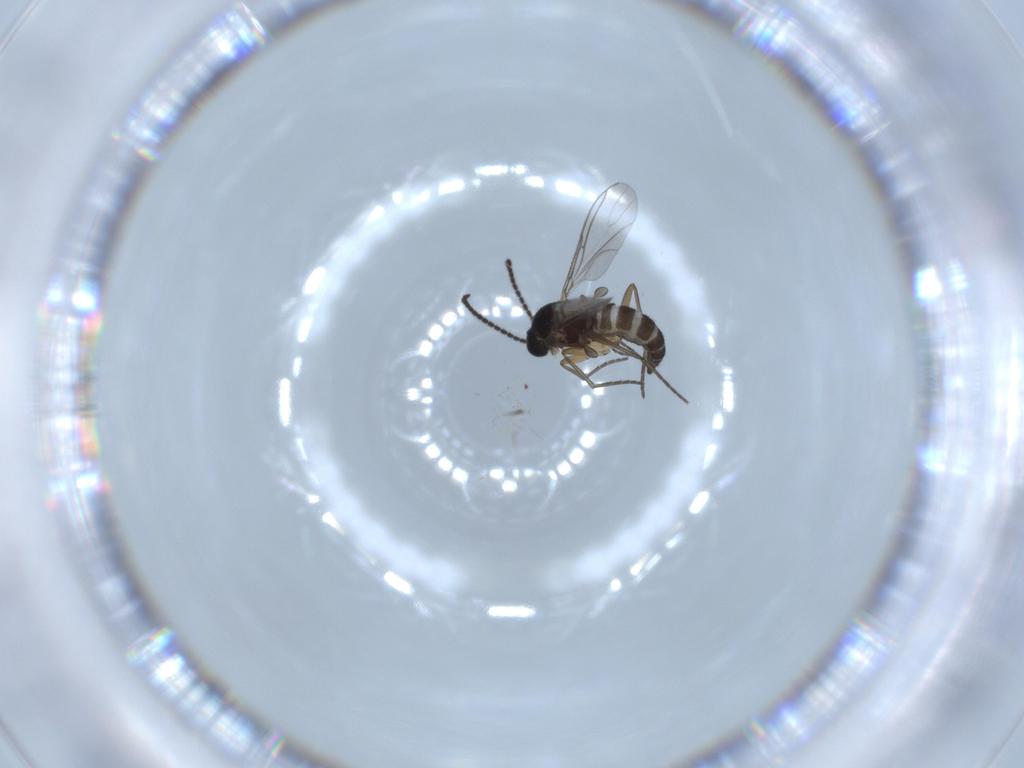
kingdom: Animalia
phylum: Arthropoda
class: Insecta
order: Diptera
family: Sciaridae
